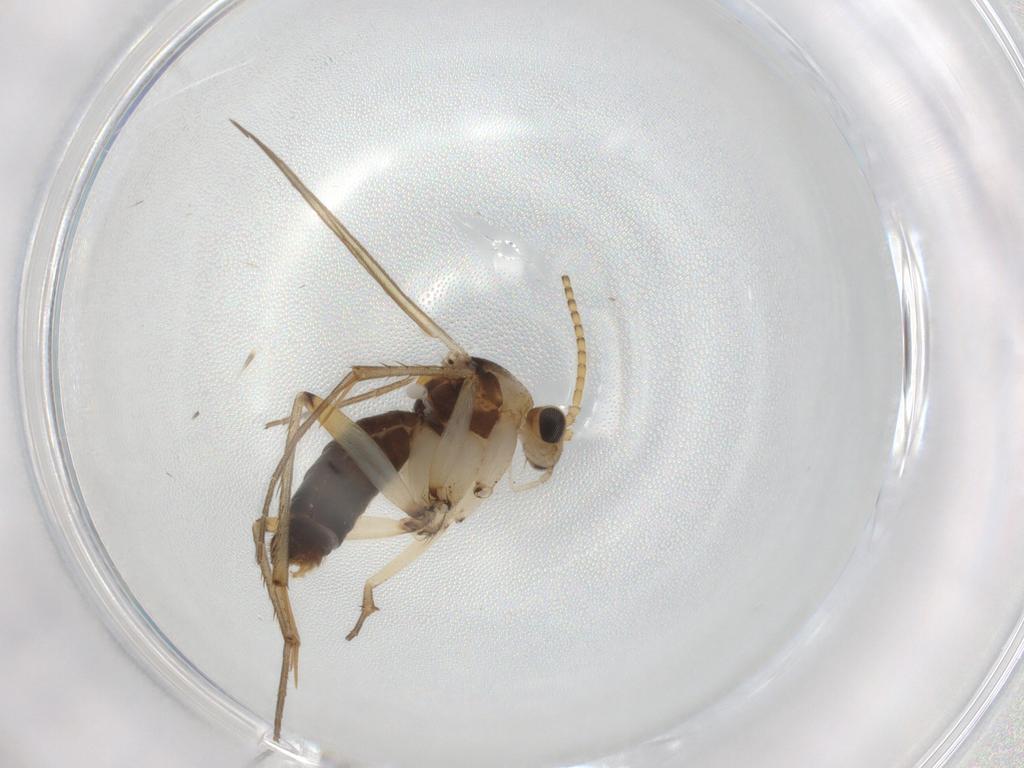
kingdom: Animalia
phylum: Arthropoda
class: Insecta
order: Diptera
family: Mycetophilidae
